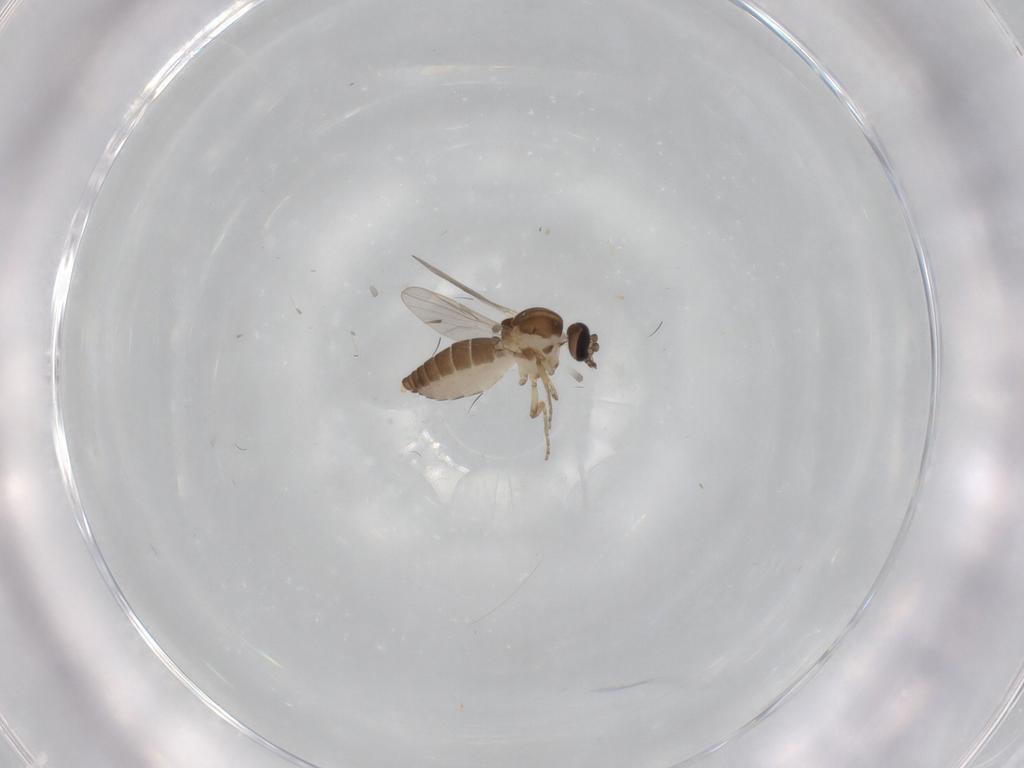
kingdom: Animalia
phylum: Arthropoda
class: Insecta
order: Diptera
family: Ceratopogonidae
